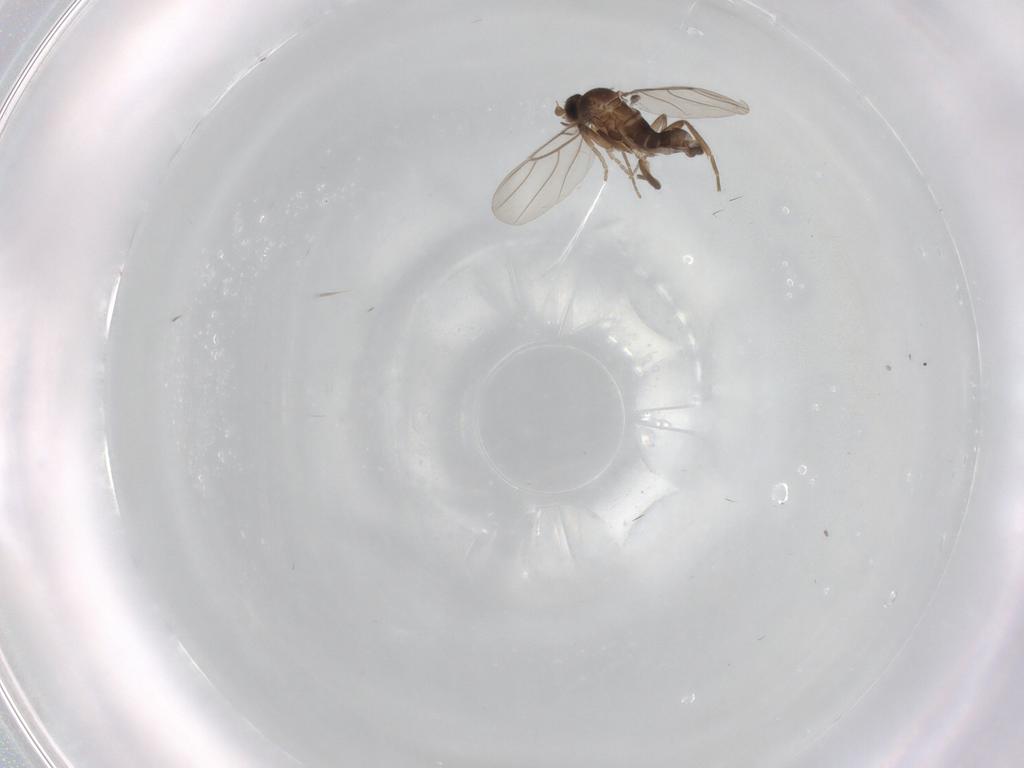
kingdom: Animalia
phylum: Arthropoda
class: Insecta
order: Diptera
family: Ceratopogonidae
